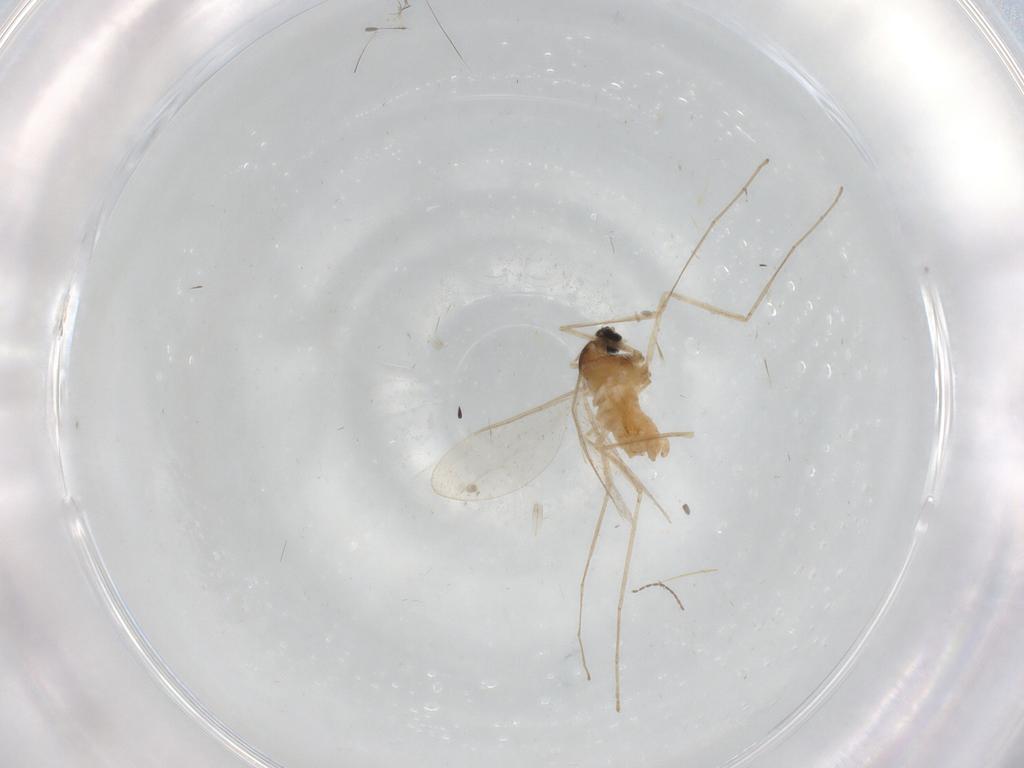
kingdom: Animalia
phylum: Arthropoda
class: Insecta
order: Diptera
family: Cecidomyiidae
